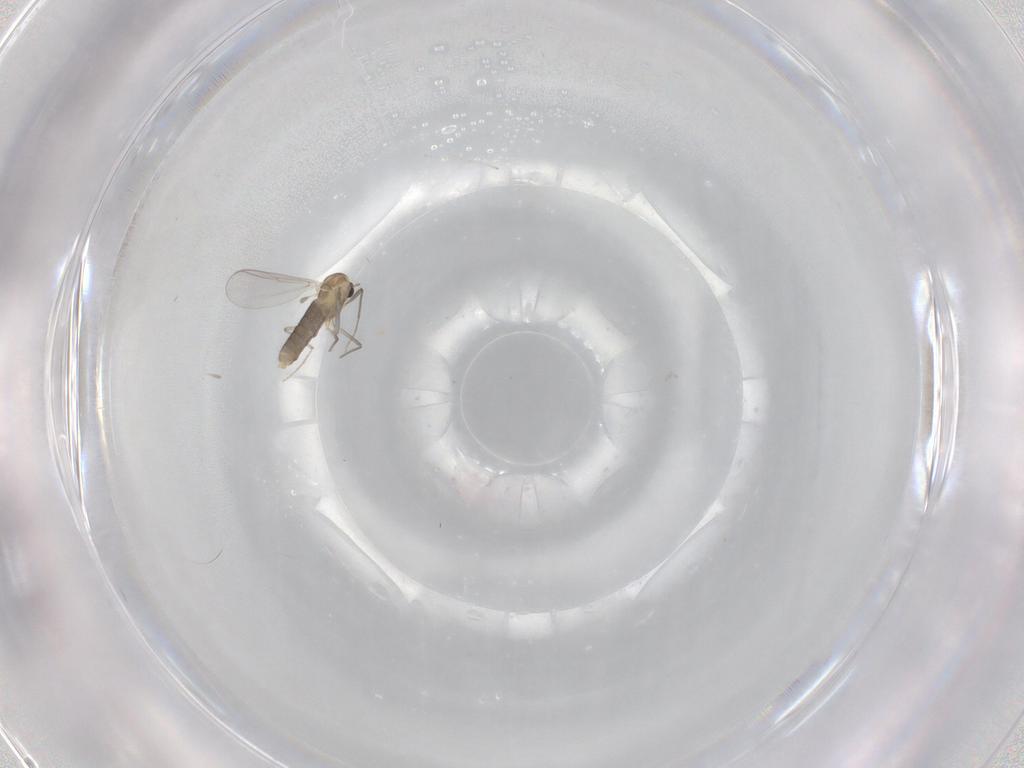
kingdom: Animalia
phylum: Arthropoda
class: Insecta
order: Diptera
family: Chironomidae
